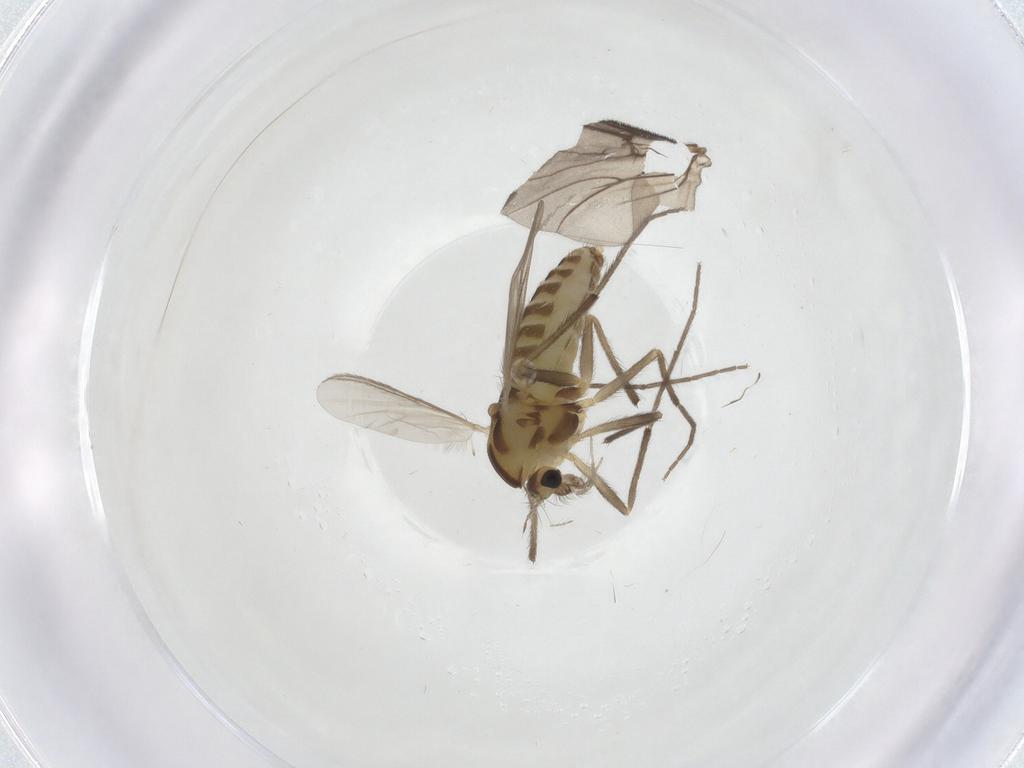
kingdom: Animalia
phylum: Arthropoda
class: Insecta
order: Diptera
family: Chironomidae
